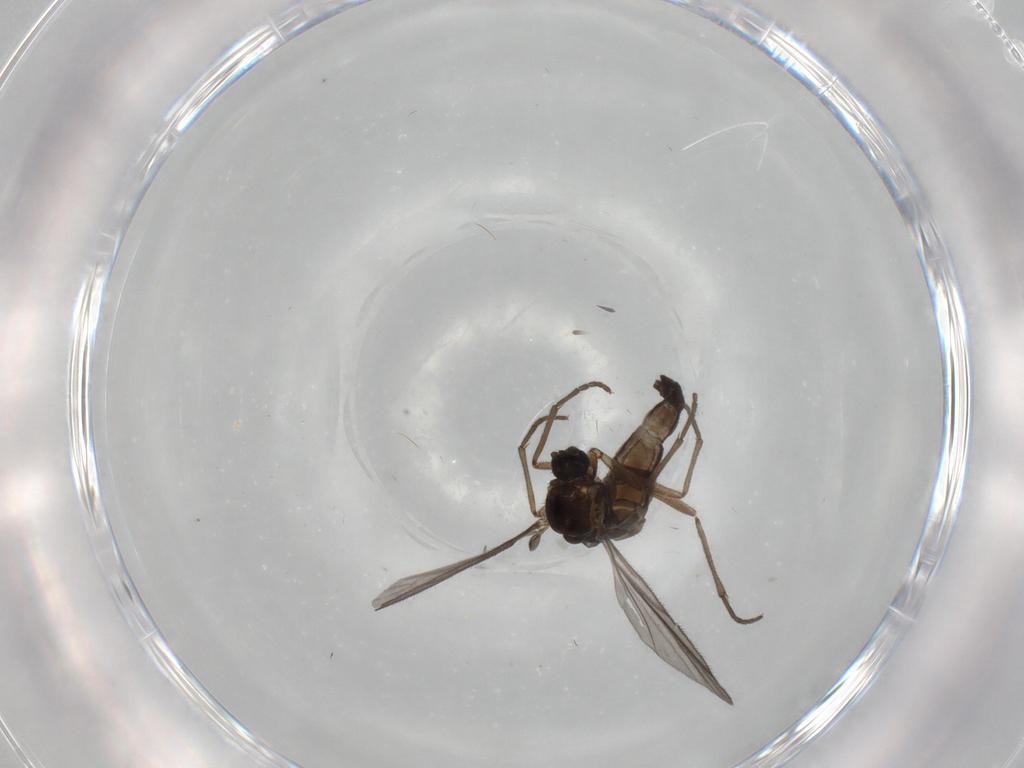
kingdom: Animalia
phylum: Arthropoda
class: Insecta
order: Diptera
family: Sciaridae
